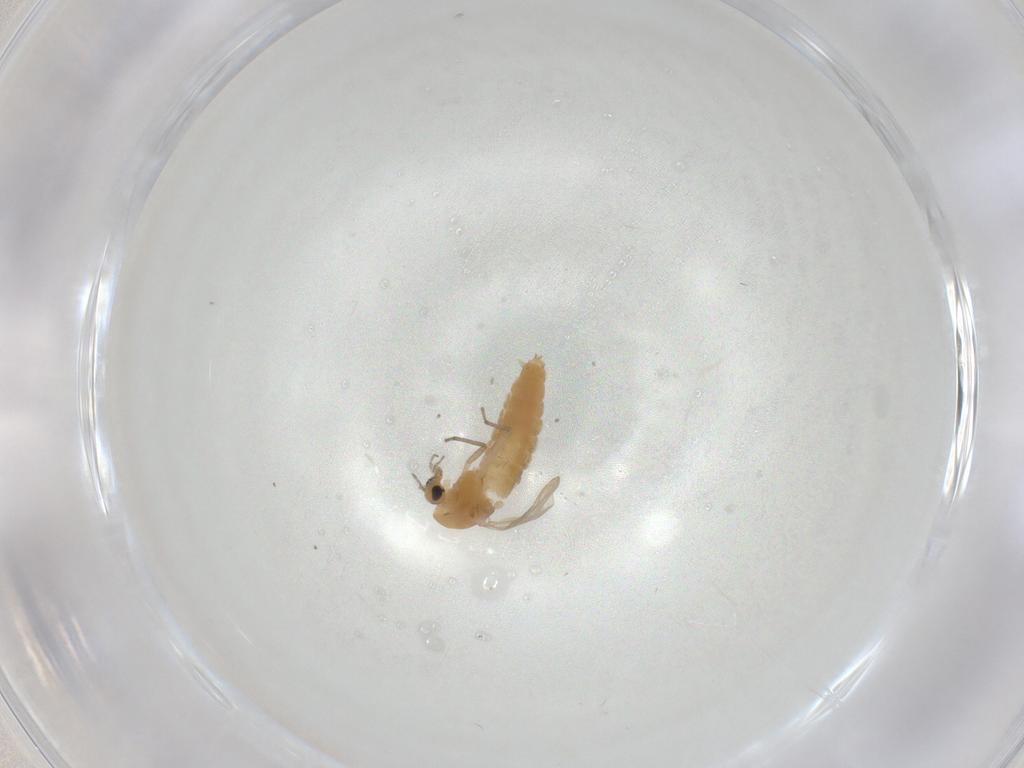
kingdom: Animalia
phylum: Arthropoda
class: Insecta
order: Diptera
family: Chironomidae
